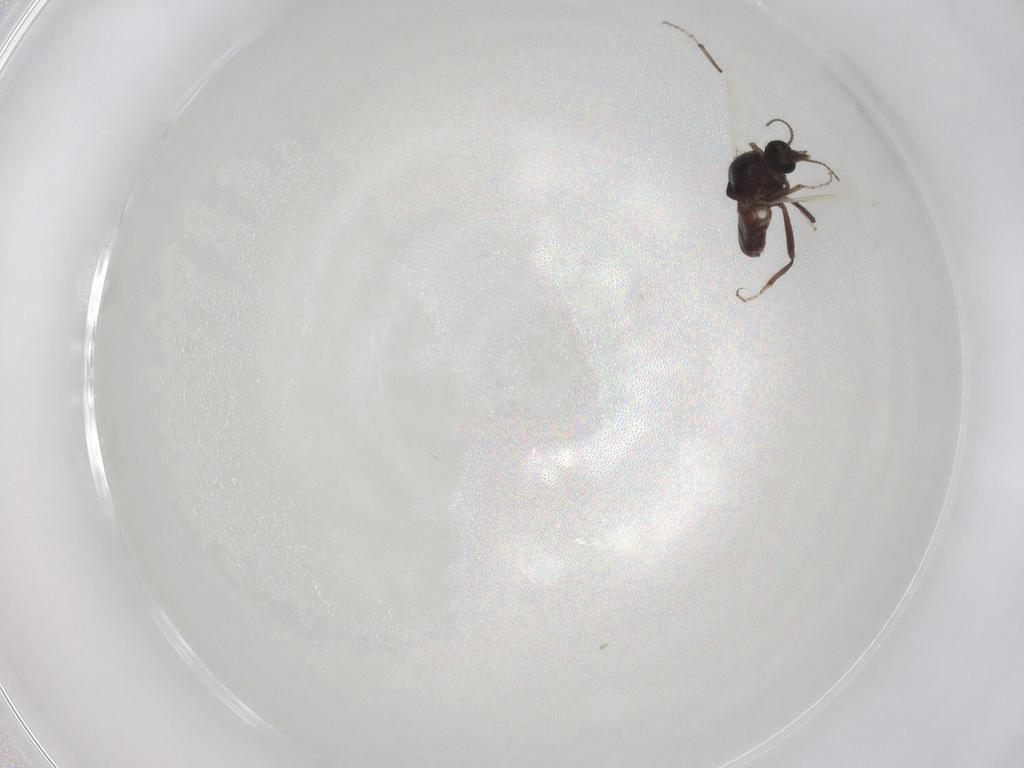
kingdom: Animalia
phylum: Arthropoda
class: Insecta
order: Diptera
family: Ceratopogonidae
